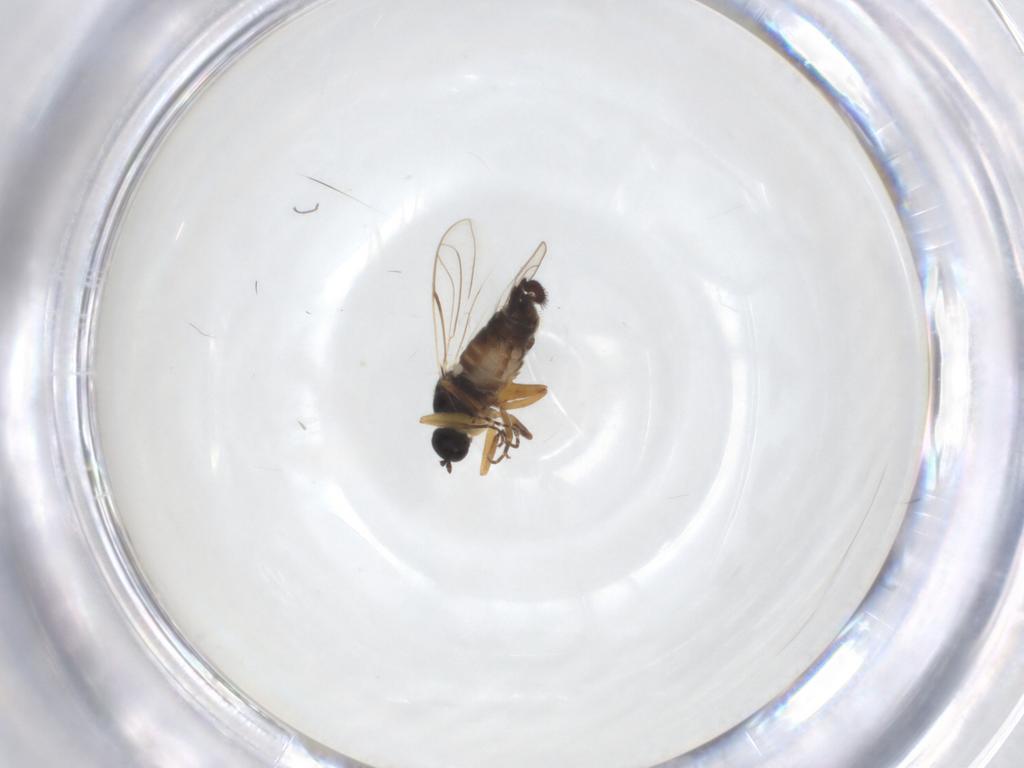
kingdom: Animalia
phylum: Arthropoda
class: Insecta
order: Diptera
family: Hybotidae
